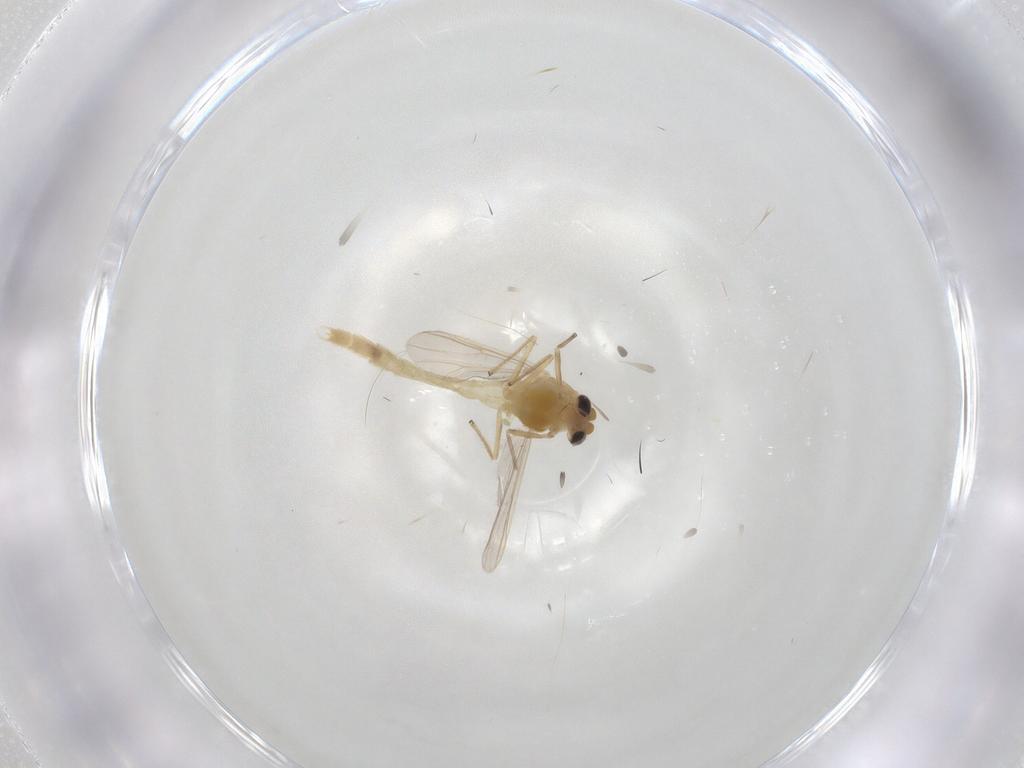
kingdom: Animalia
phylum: Arthropoda
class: Insecta
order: Diptera
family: Chironomidae
